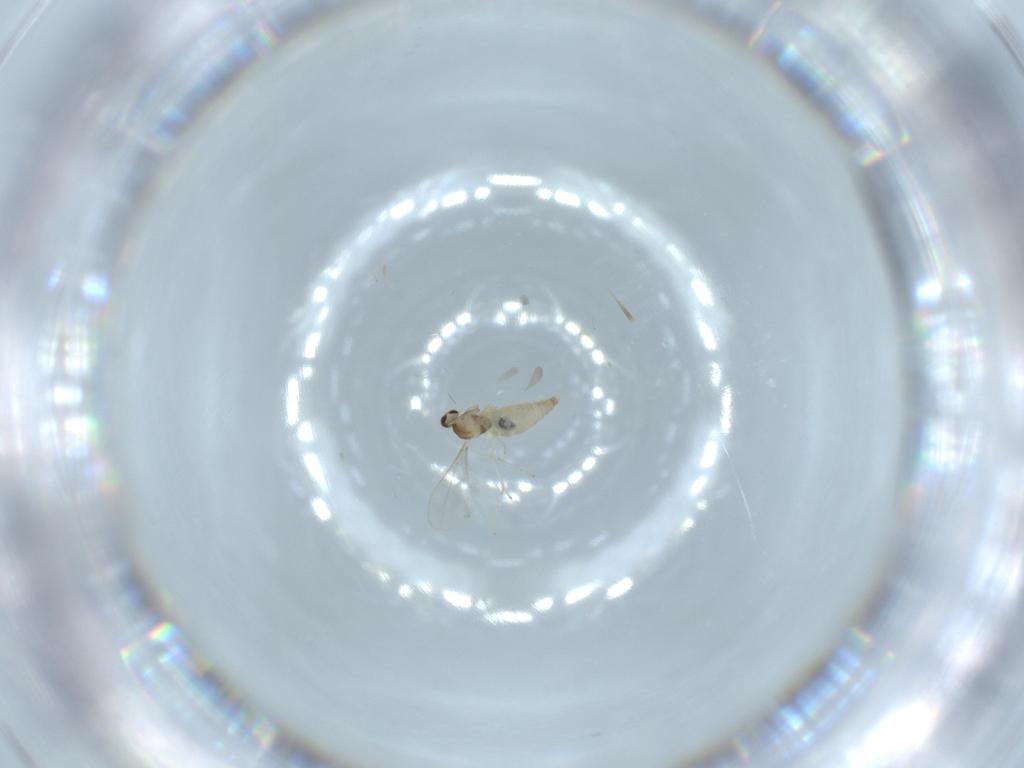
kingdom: Animalia
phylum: Arthropoda
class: Insecta
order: Diptera
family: Cecidomyiidae
